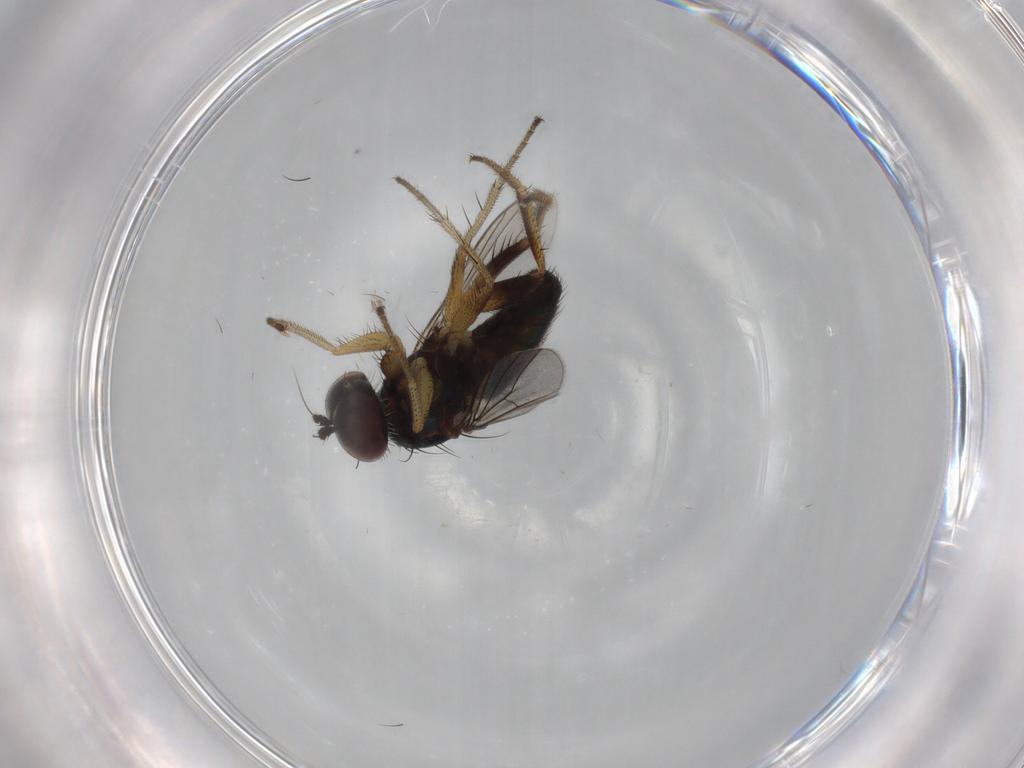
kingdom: Animalia
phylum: Arthropoda
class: Insecta
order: Diptera
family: Dolichopodidae
